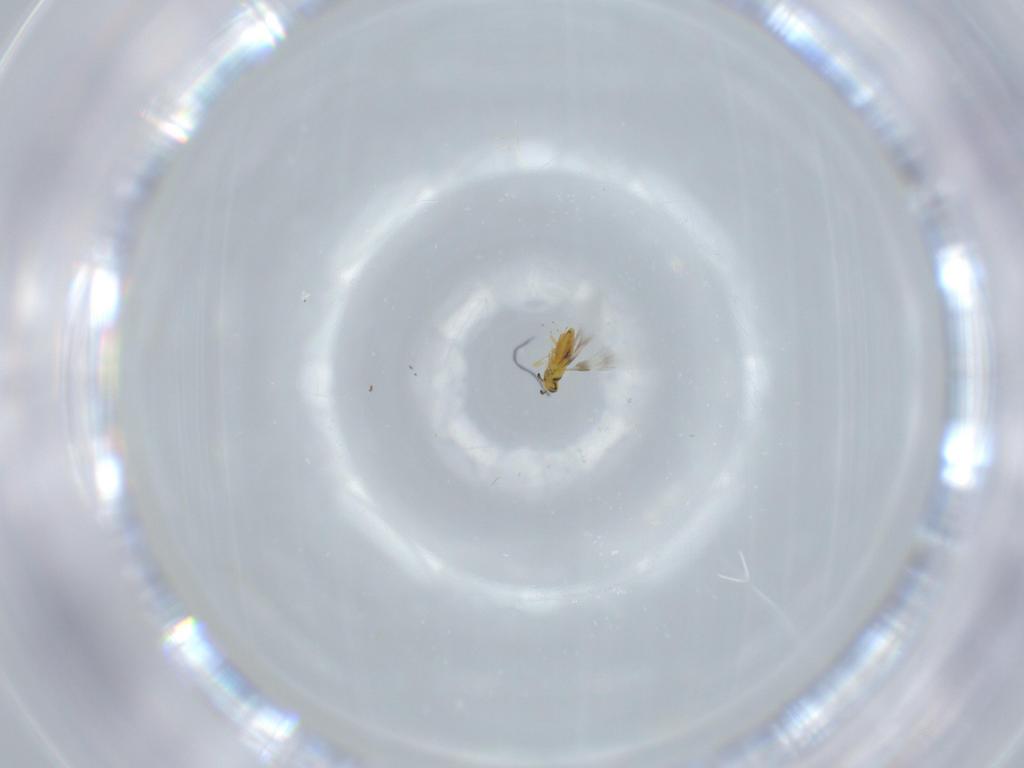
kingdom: Animalia
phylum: Arthropoda
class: Insecta
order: Hymenoptera
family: Signiphoridae
